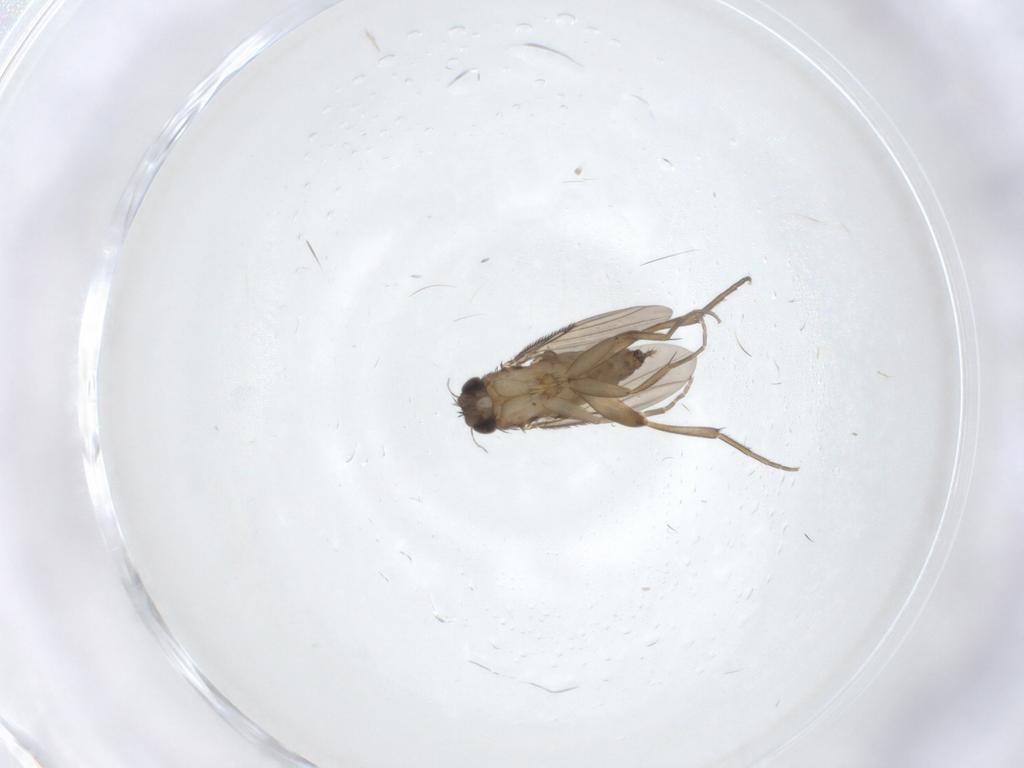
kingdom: Animalia
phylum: Arthropoda
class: Insecta
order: Diptera
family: Phoridae
